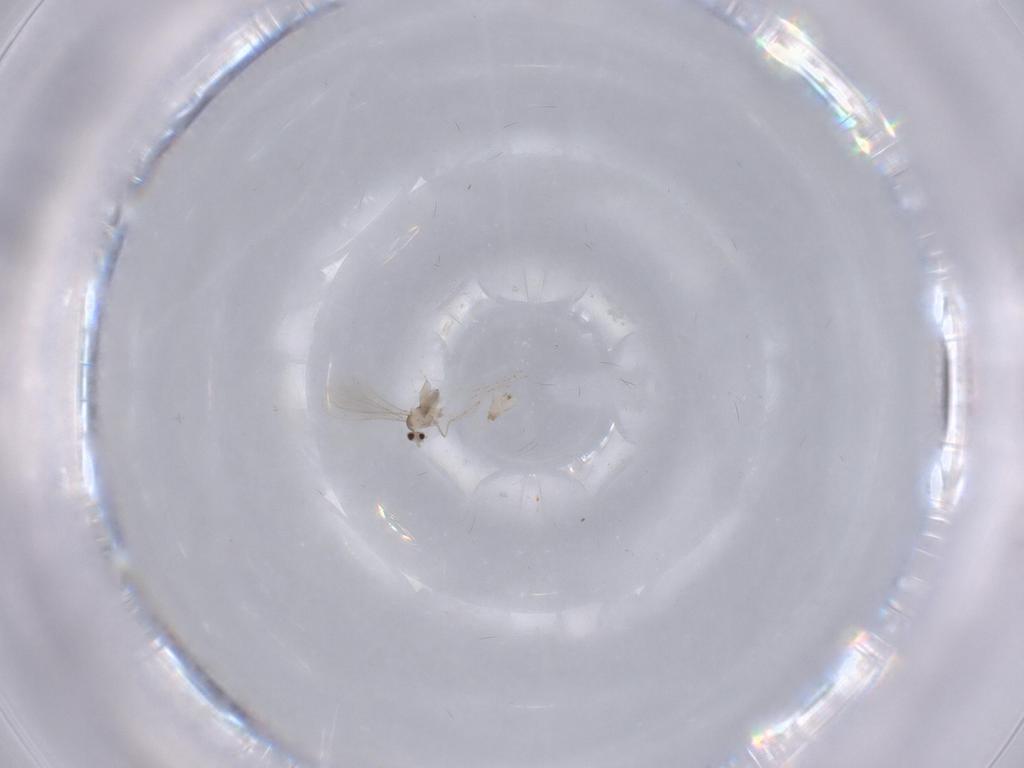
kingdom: Animalia
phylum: Arthropoda
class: Insecta
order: Diptera
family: Cecidomyiidae
